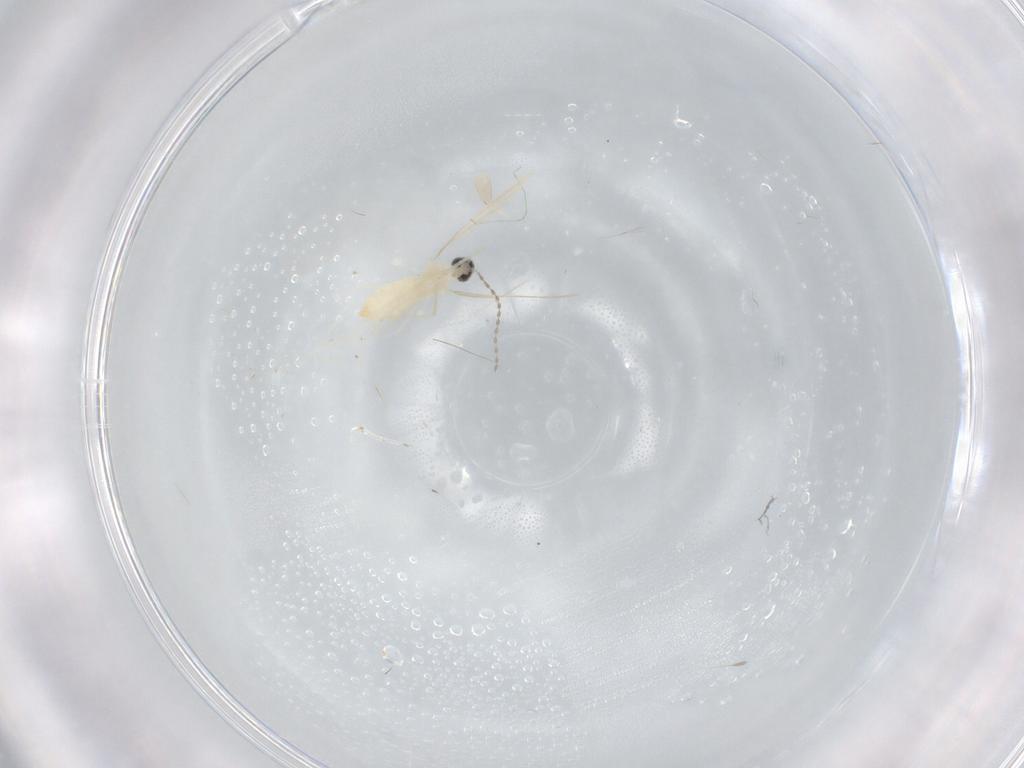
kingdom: Animalia
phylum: Arthropoda
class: Insecta
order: Diptera
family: Cecidomyiidae
